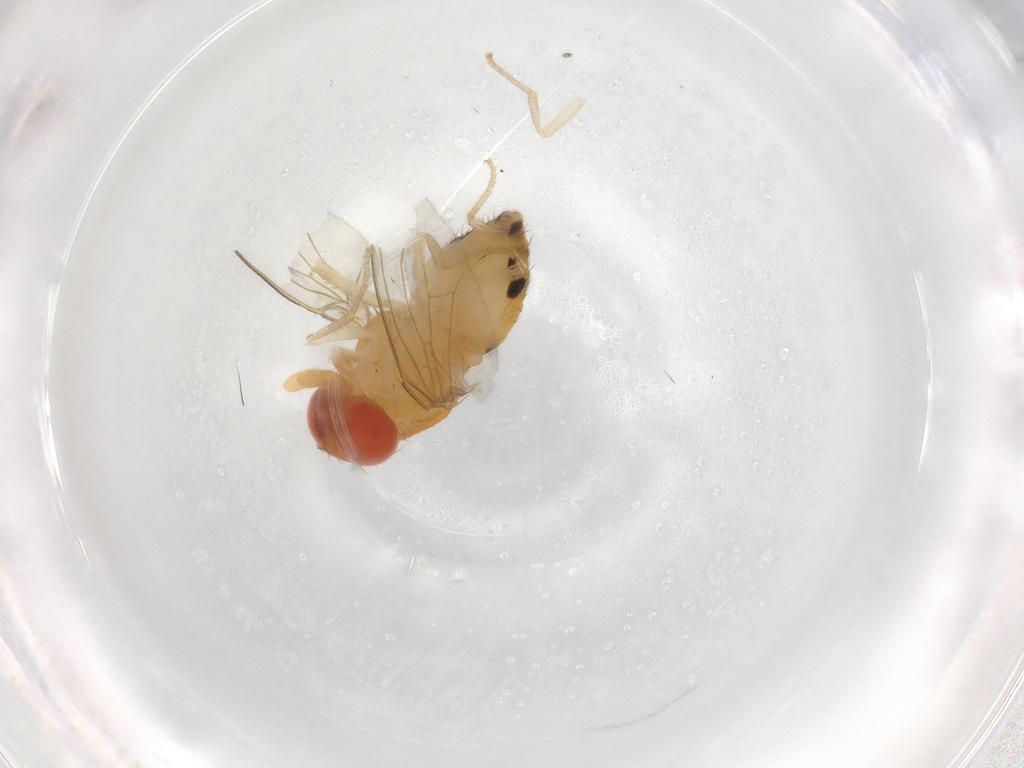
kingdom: Animalia
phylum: Arthropoda
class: Insecta
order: Diptera
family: Drosophilidae
